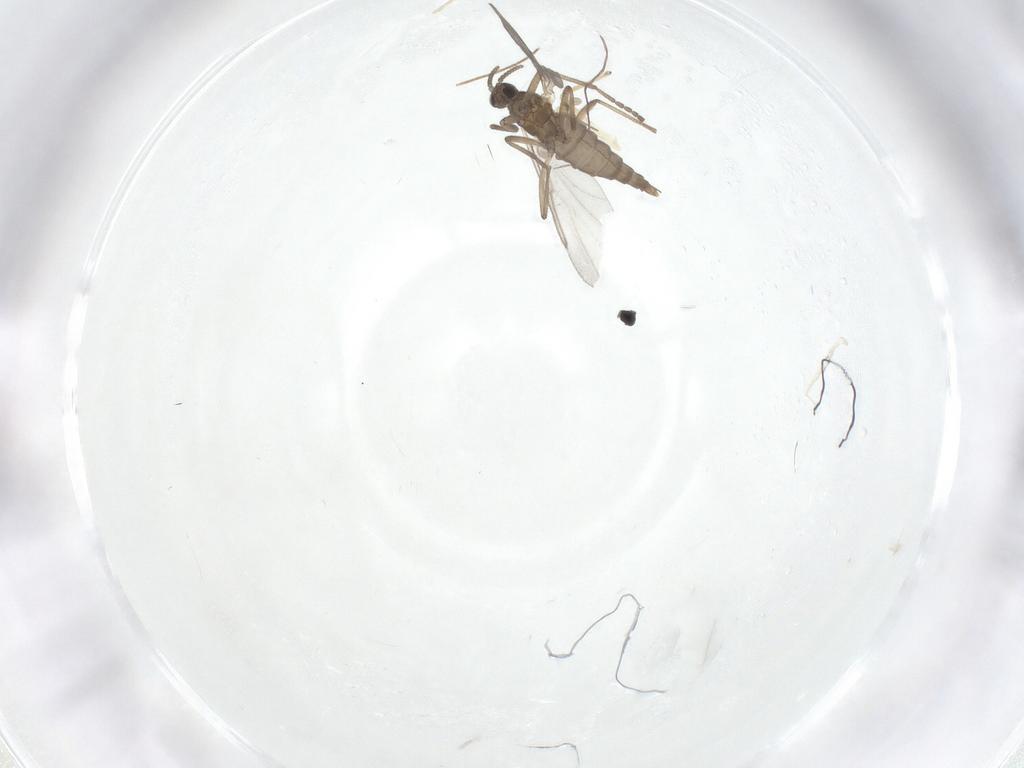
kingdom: Animalia
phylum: Arthropoda
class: Insecta
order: Diptera
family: Cecidomyiidae
